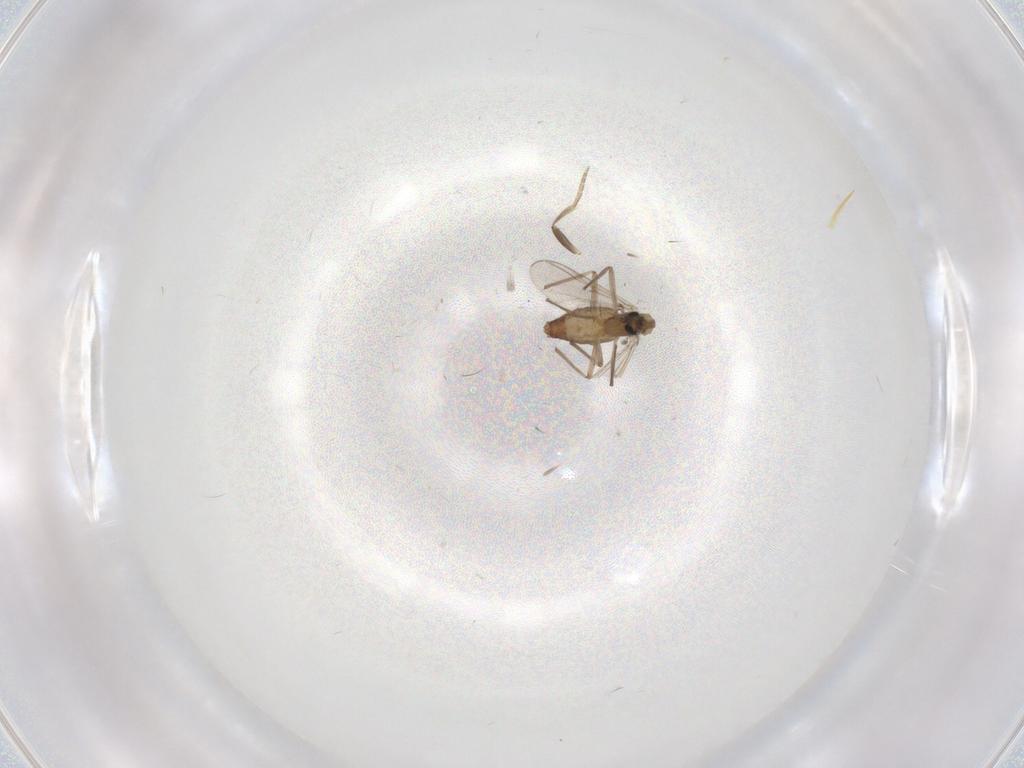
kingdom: Animalia
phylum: Arthropoda
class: Insecta
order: Diptera
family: Chironomidae
